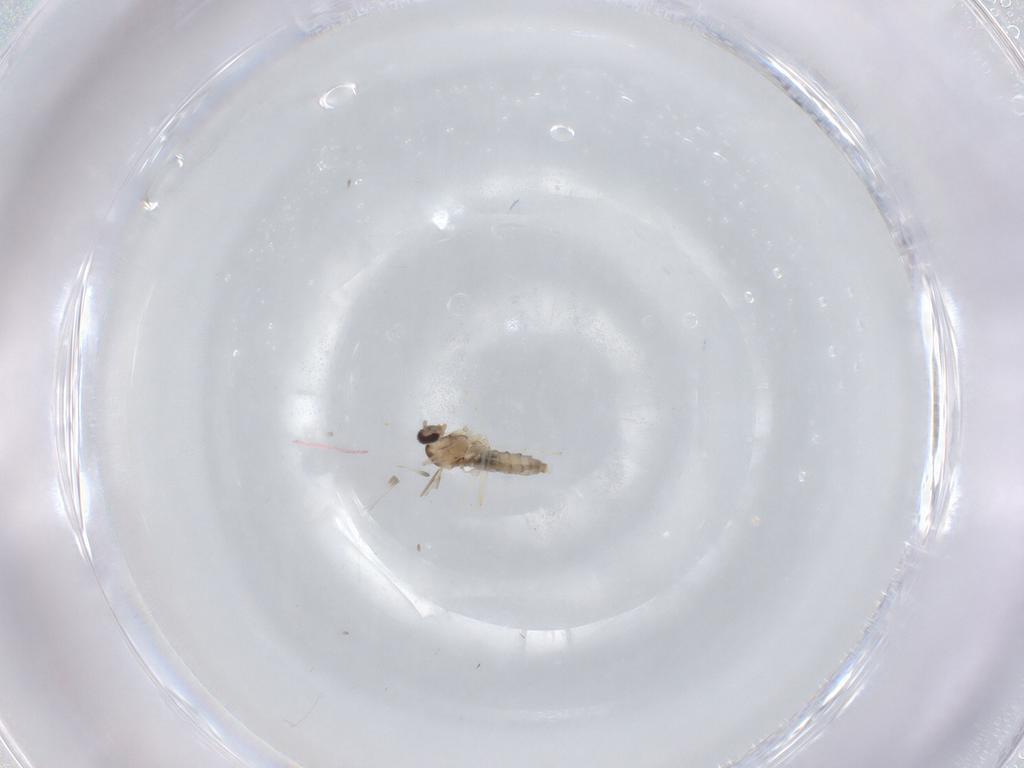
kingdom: Animalia
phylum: Arthropoda
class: Insecta
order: Diptera
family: Cecidomyiidae
